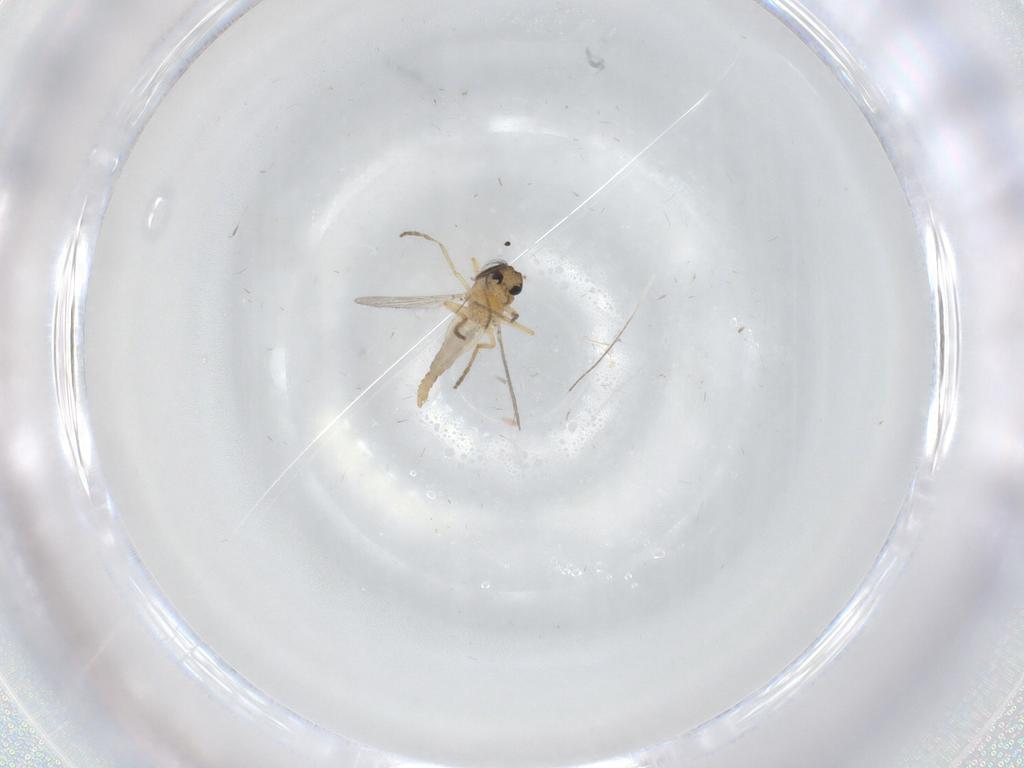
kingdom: Animalia
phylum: Arthropoda
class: Insecta
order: Diptera
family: Psychodidae
